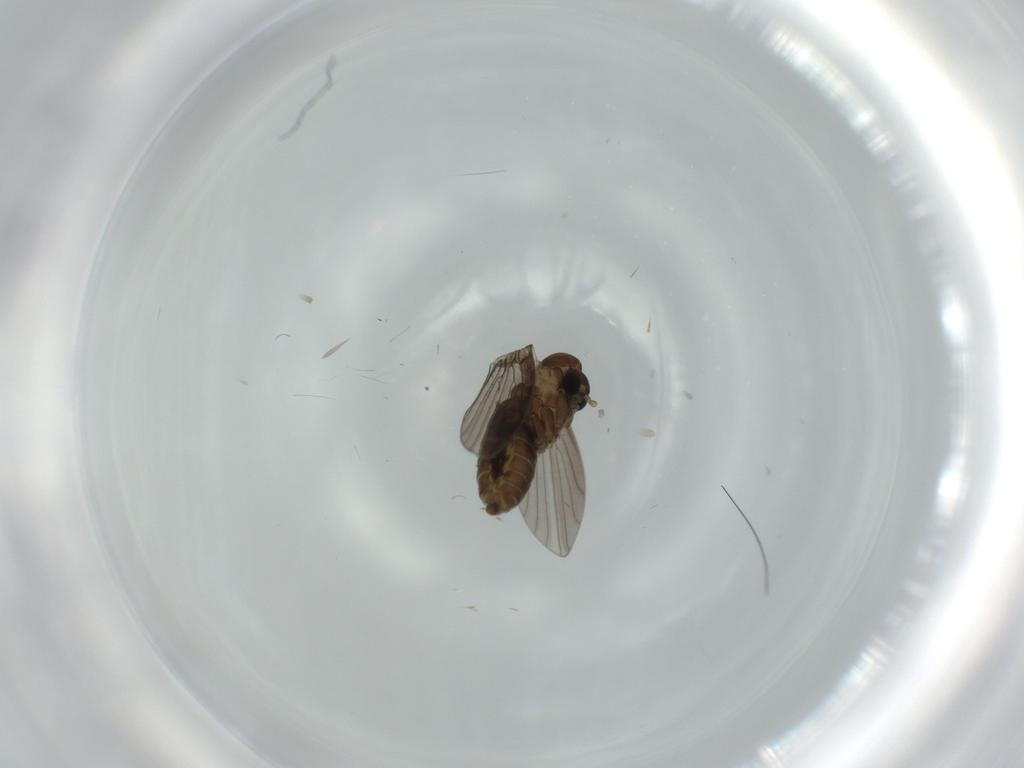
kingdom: Animalia
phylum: Arthropoda
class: Insecta
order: Diptera
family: Psychodidae
